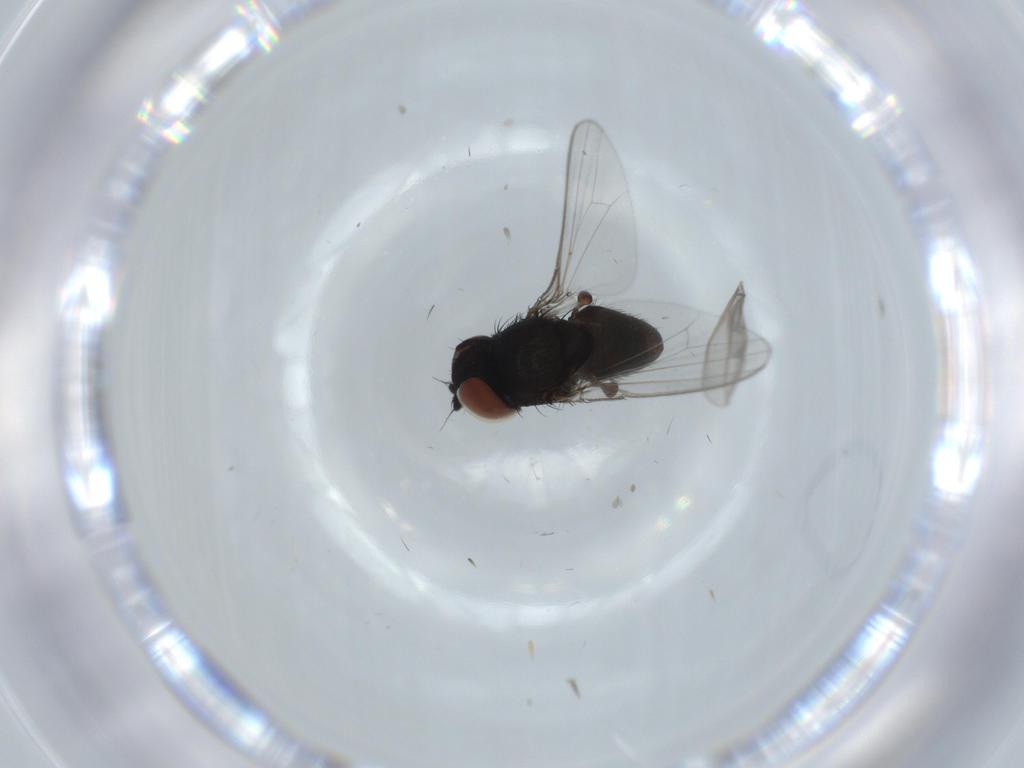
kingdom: Animalia
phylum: Arthropoda
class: Insecta
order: Diptera
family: Milichiidae
